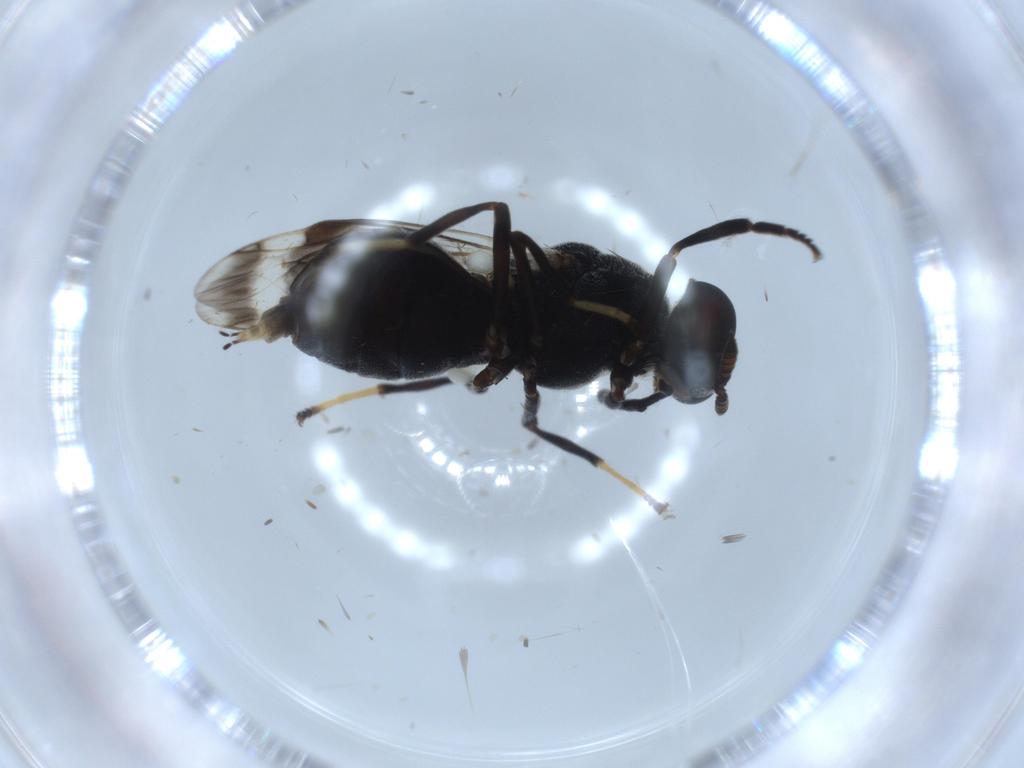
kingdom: Animalia
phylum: Arthropoda
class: Insecta
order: Diptera
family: Stratiomyidae
